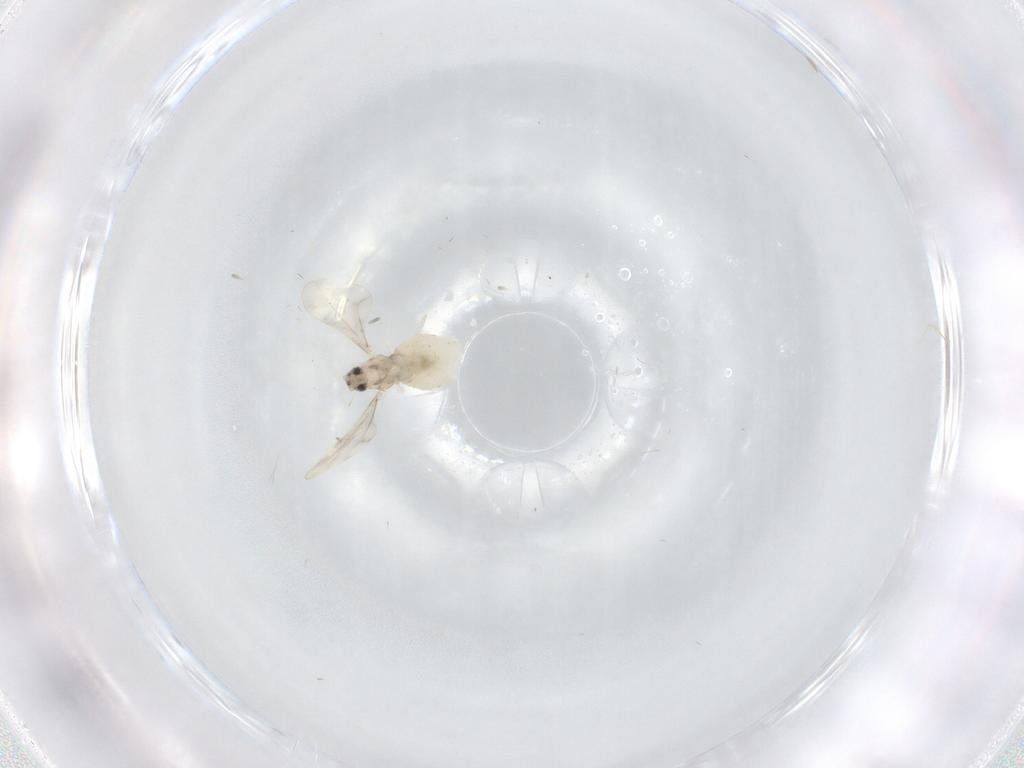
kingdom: Animalia
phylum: Arthropoda
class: Insecta
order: Diptera
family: Cecidomyiidae
